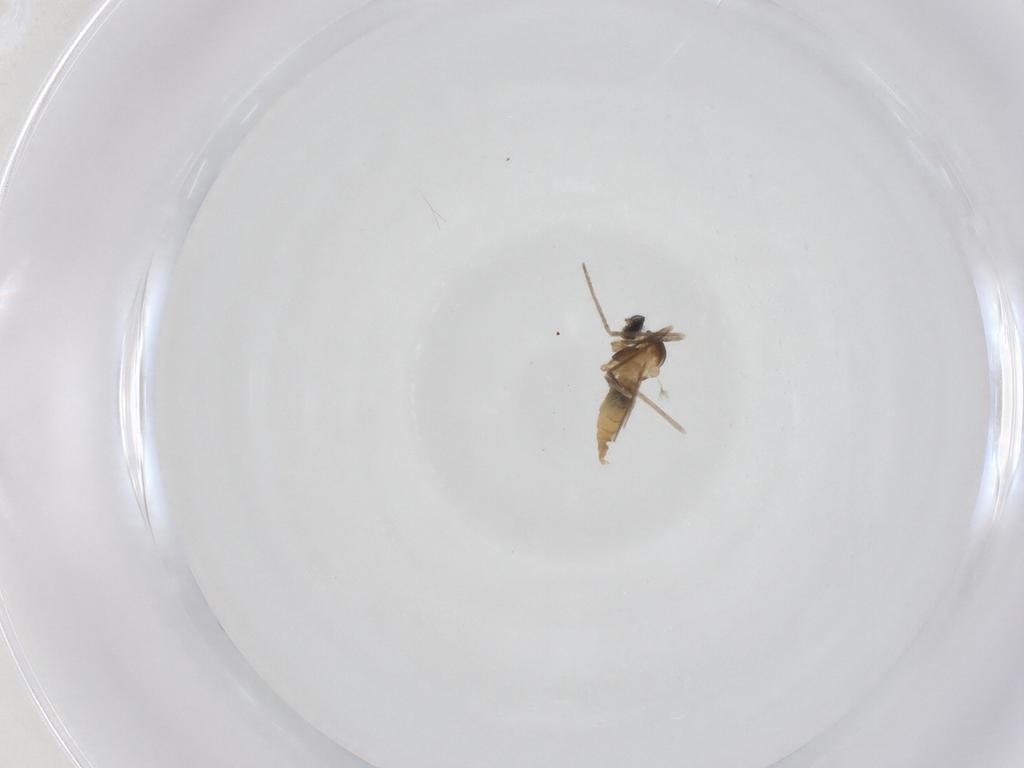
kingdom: Animalia
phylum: Arthropoda
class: Insecta
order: Diptera
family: Cecidomyiidae
